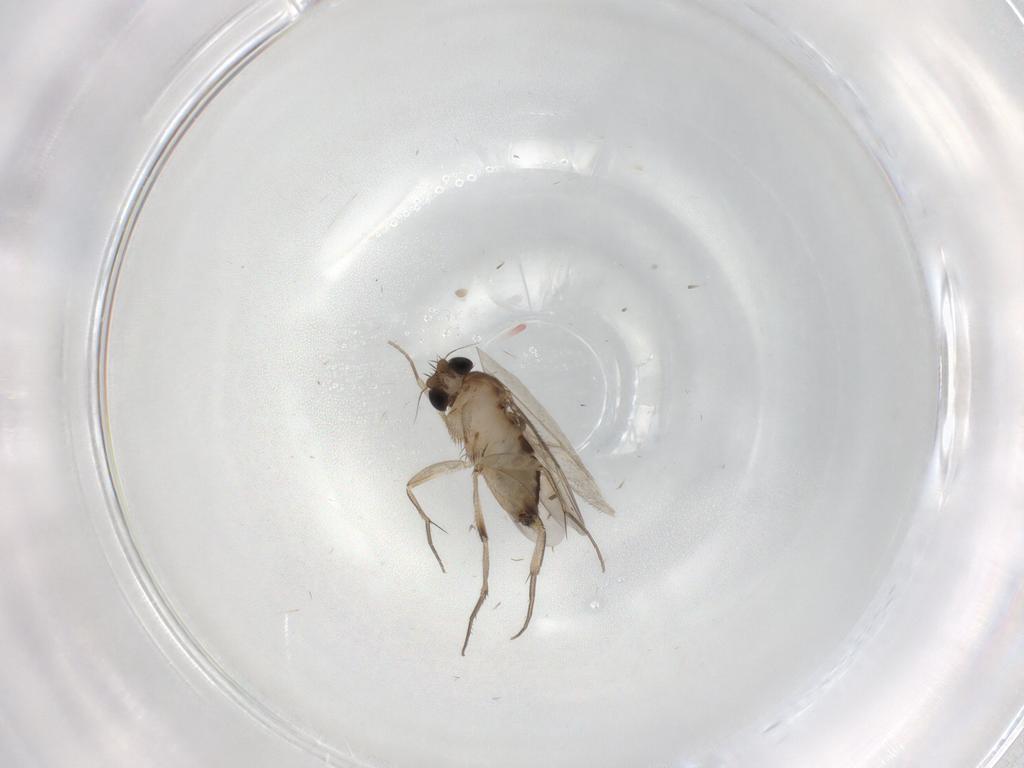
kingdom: Animalia
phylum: Arthropoda
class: Insecta
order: Diptera
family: Phoridae
